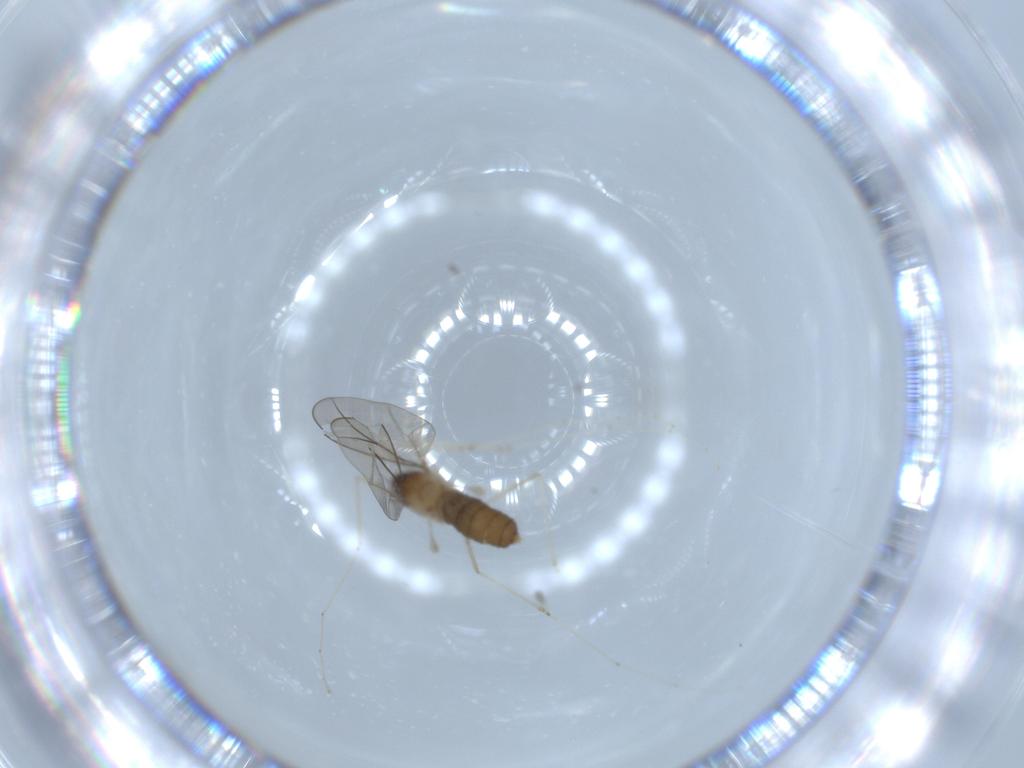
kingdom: Animalia
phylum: Arthropoda
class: Insecta
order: Diptera
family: Cecidomyiidae
